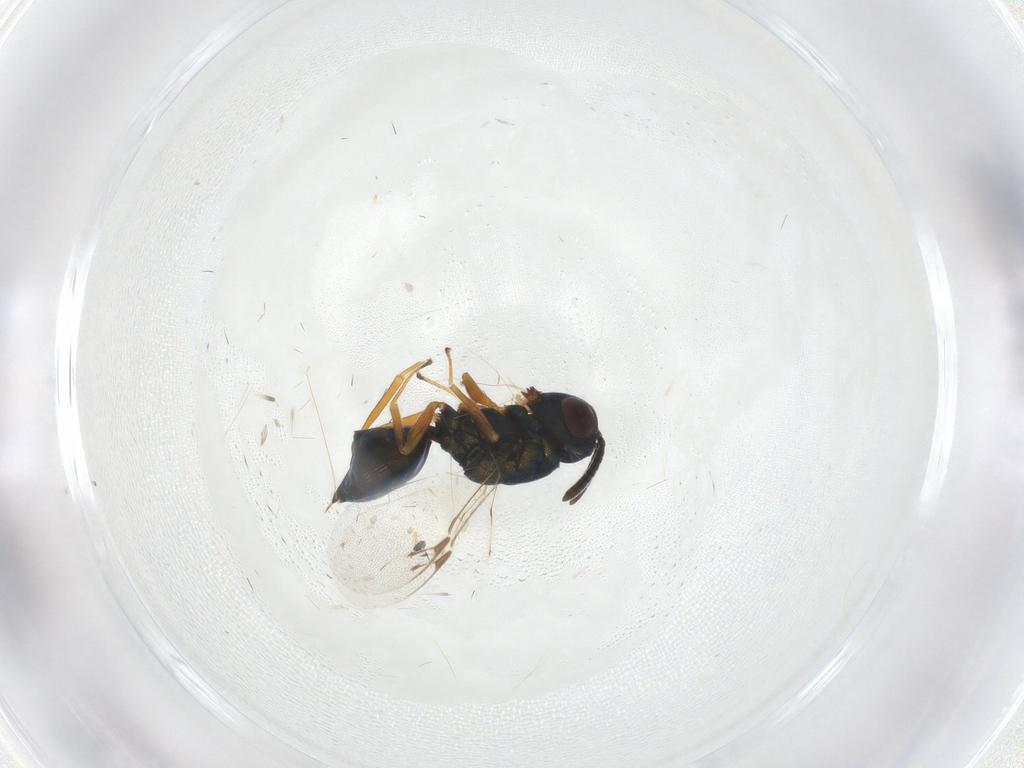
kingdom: Animalia
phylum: Arthropoda
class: Insecta
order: Hymenoptera
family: Pteromalidae
